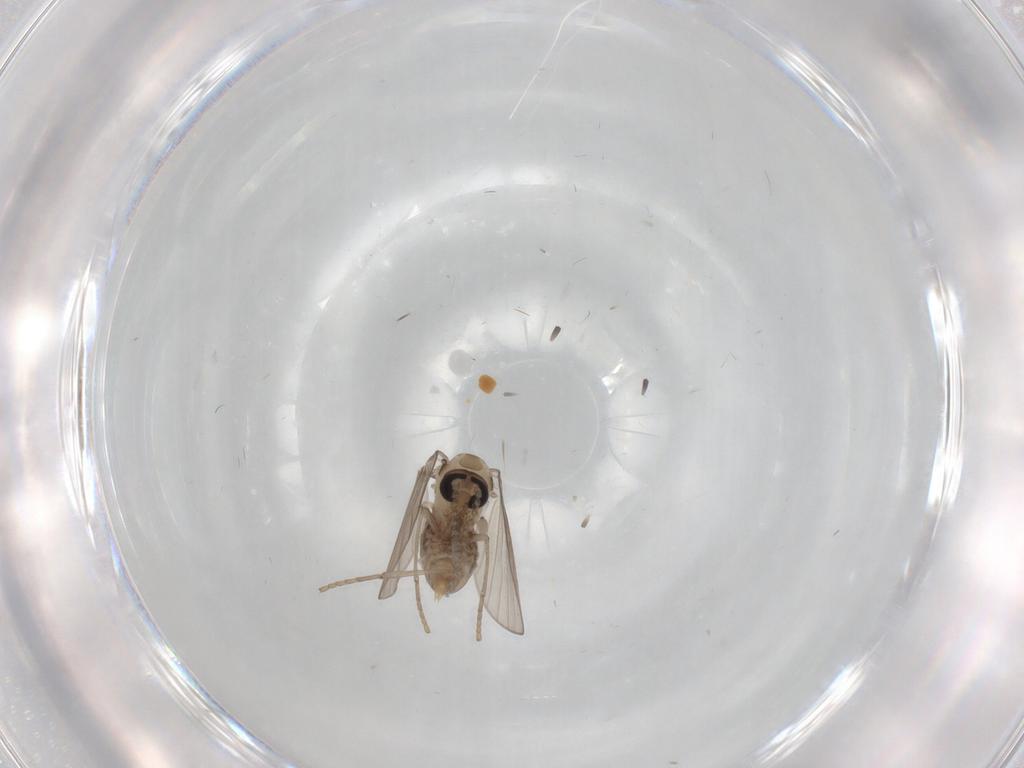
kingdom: Animalia
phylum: Arthropoda
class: Insecta
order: Diptera
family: Psychodidae
